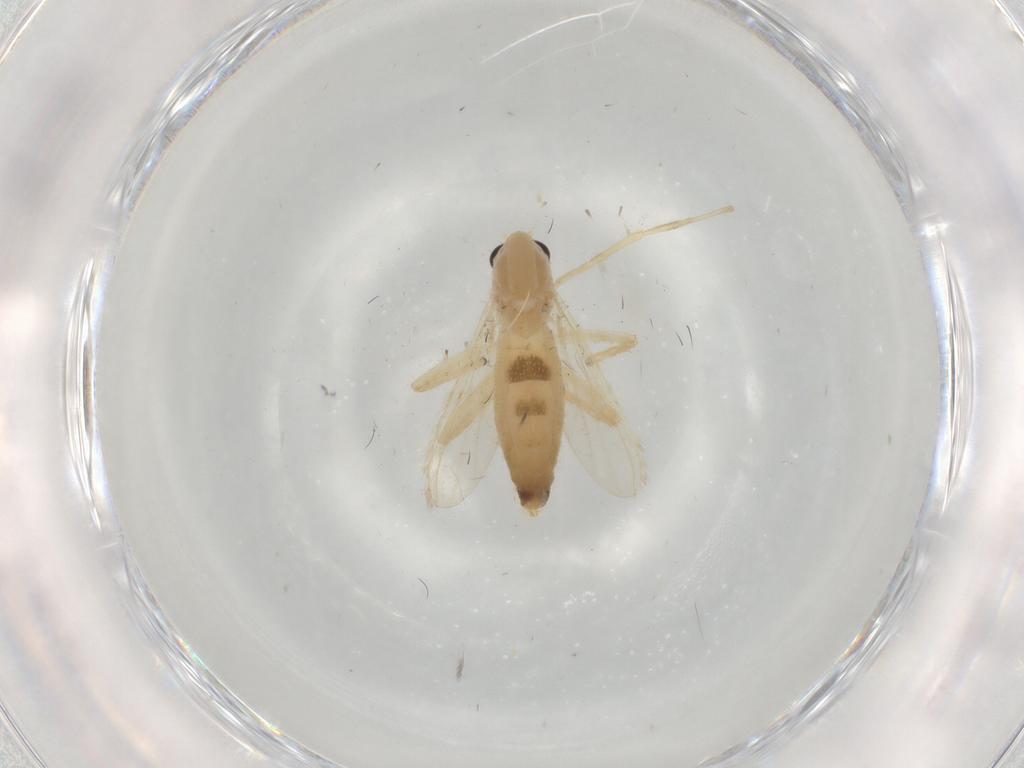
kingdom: Animalia
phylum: Arthropoda
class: Insecta
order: Diptera
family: Chironomidae
